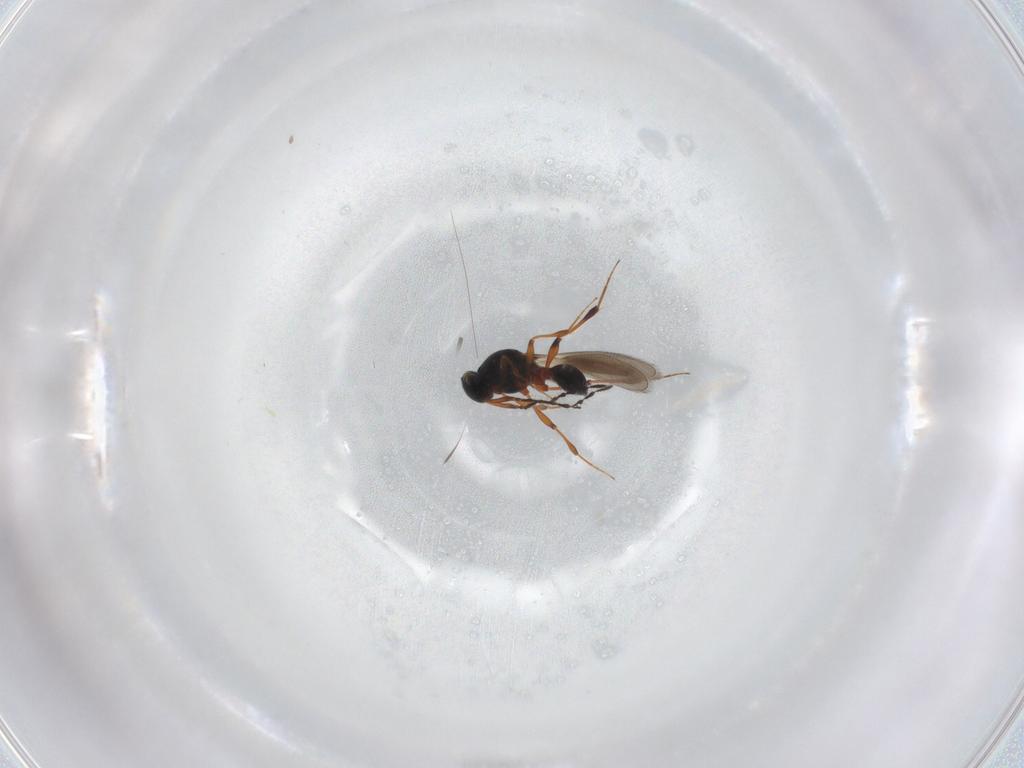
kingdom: Animalia
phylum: Arthropoda
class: Insecta
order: Hymenoptera
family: Platygastridae
